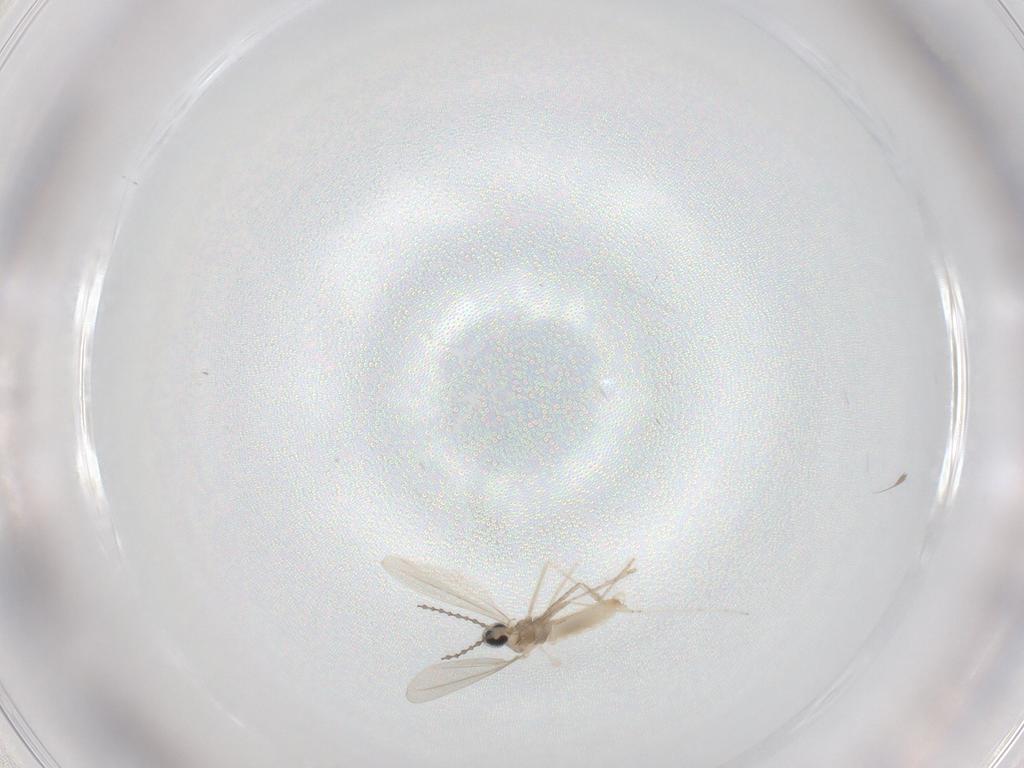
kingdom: Animalia
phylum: Arthropoda
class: Insecta
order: Diptera
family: Cecidomyiidae
